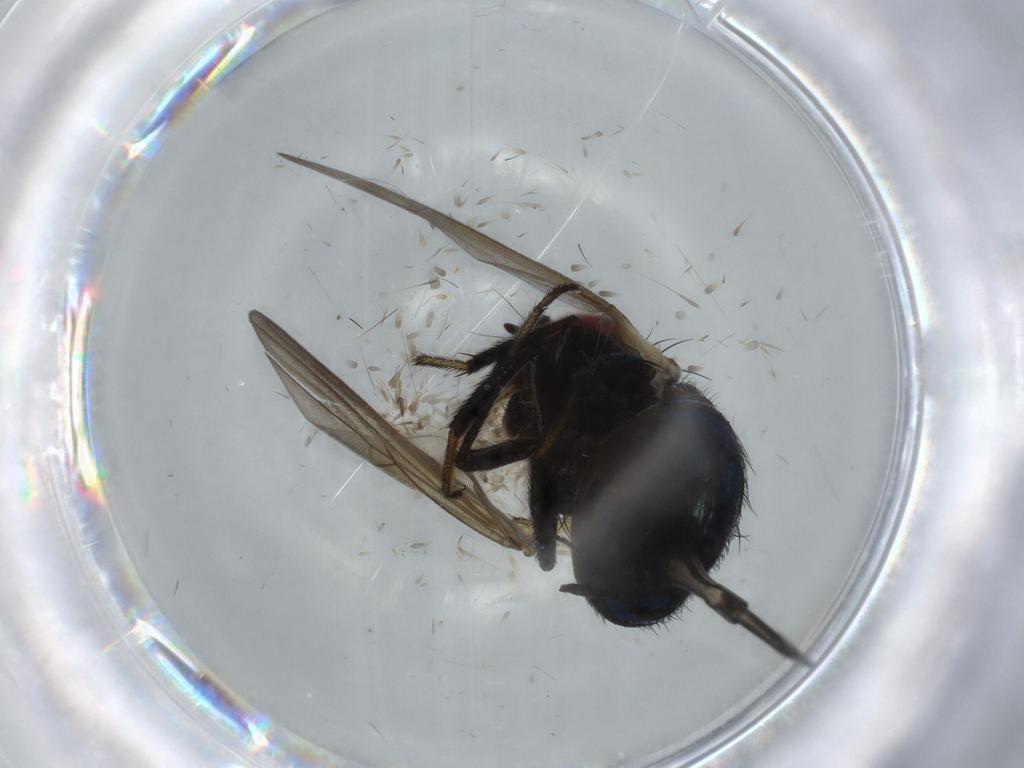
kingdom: Animalia
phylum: Arthropoda
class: Insecta
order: Diptera
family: Lonchaeidae
